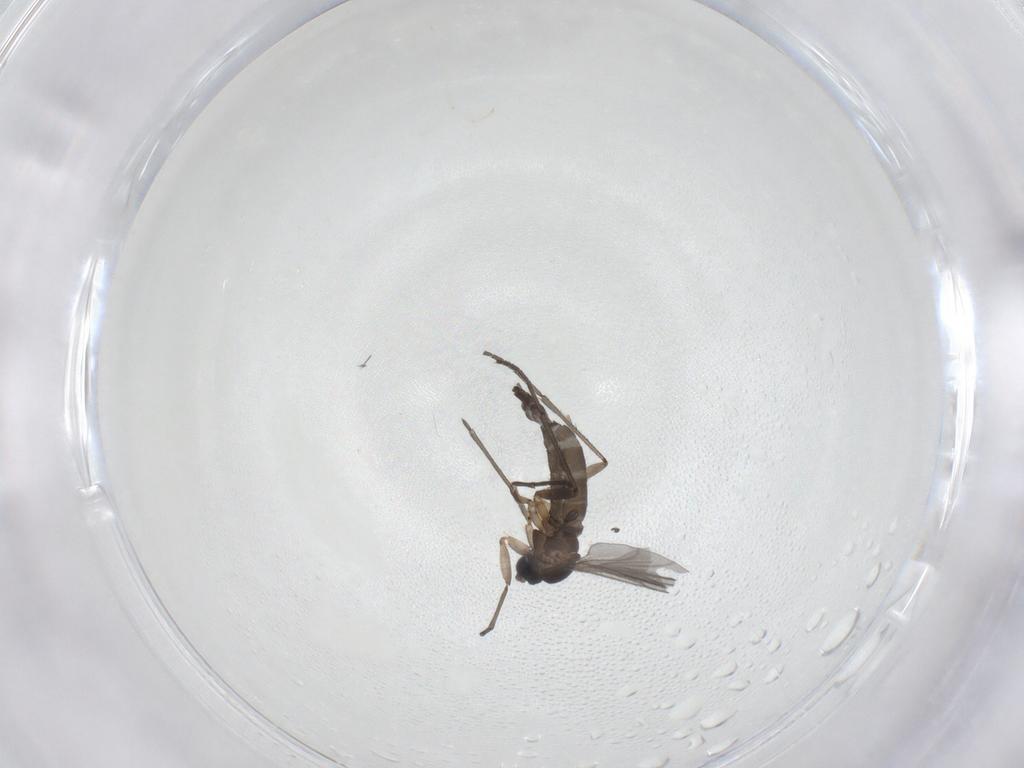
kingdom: Animalia
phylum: Arthropoda
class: Insecta
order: Diptera
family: Cecidomyiidae
